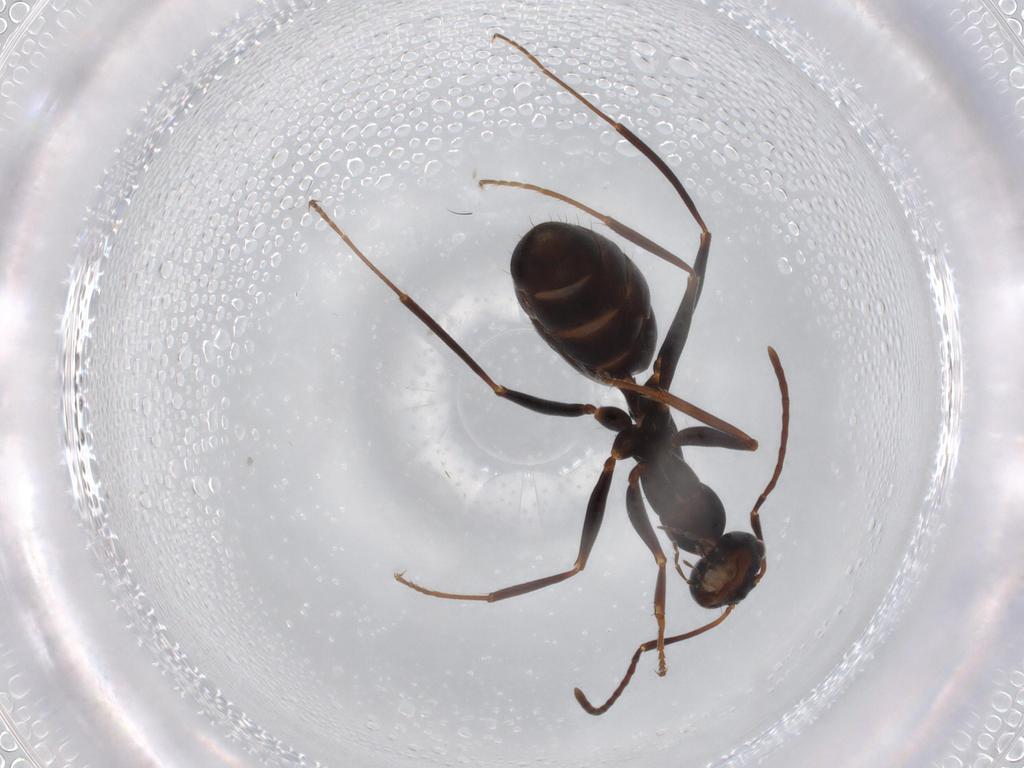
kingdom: Animalia
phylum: Arthropoda
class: Insecta
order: Hymenoptera
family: Formicidae
